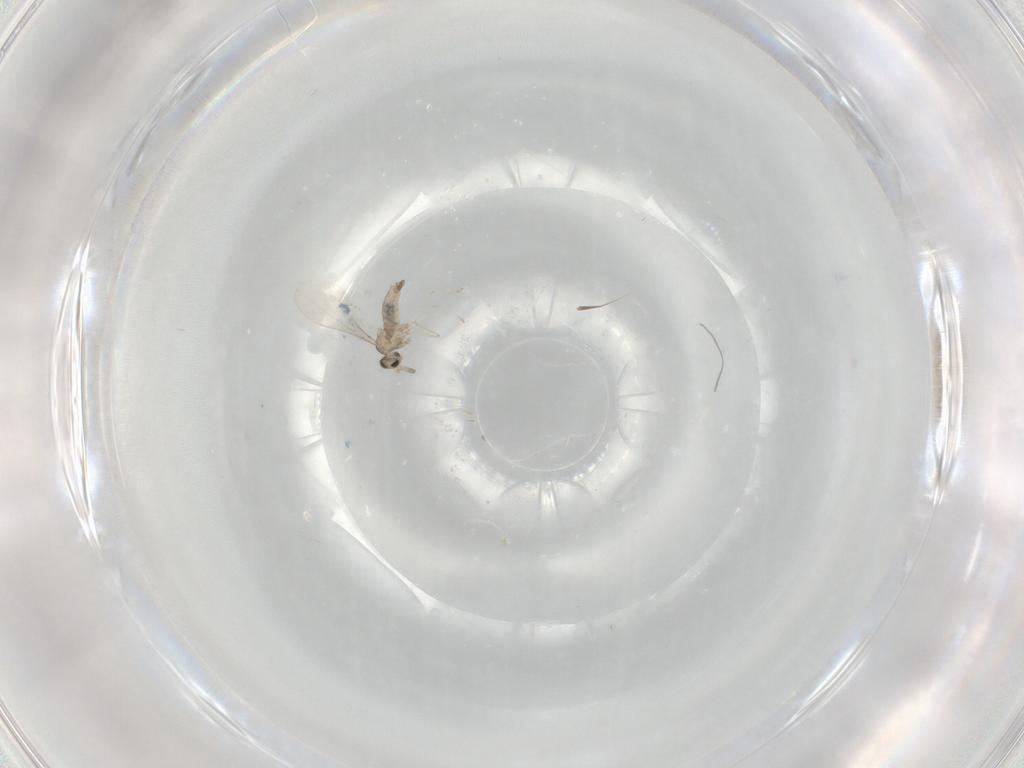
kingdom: Animalia
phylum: Arthropoda
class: Insecta
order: Diptera
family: Cecidomyiidae
